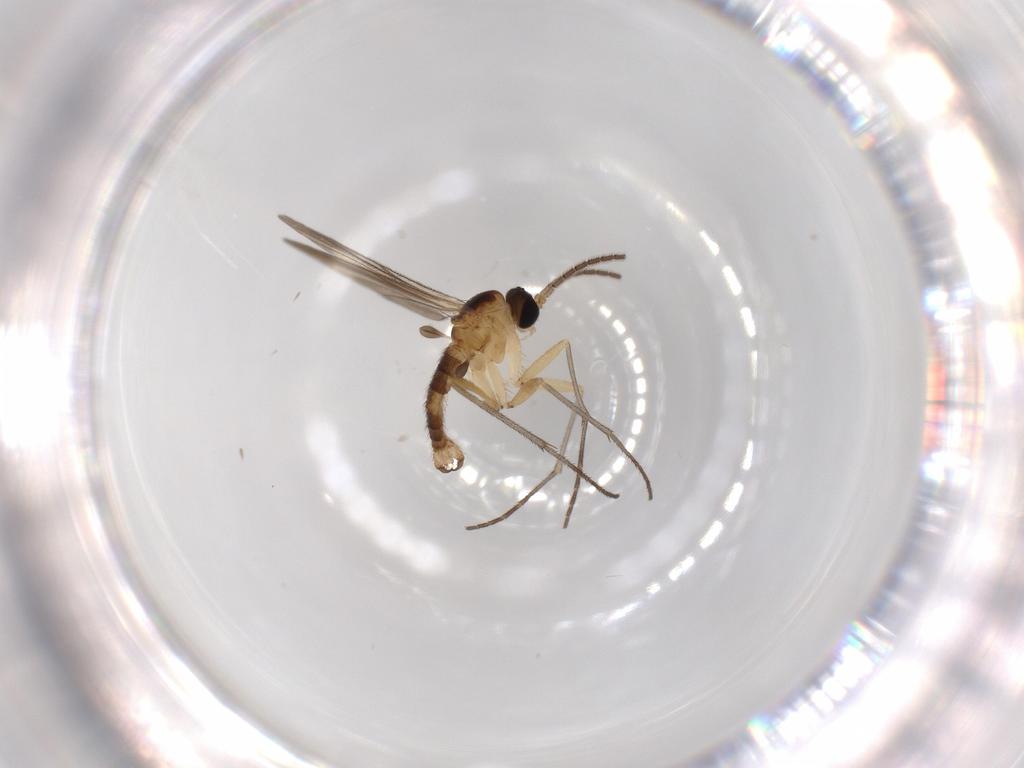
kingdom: Animalia
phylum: Arthropoda
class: Insecta
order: Diptera
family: Sciaridae
